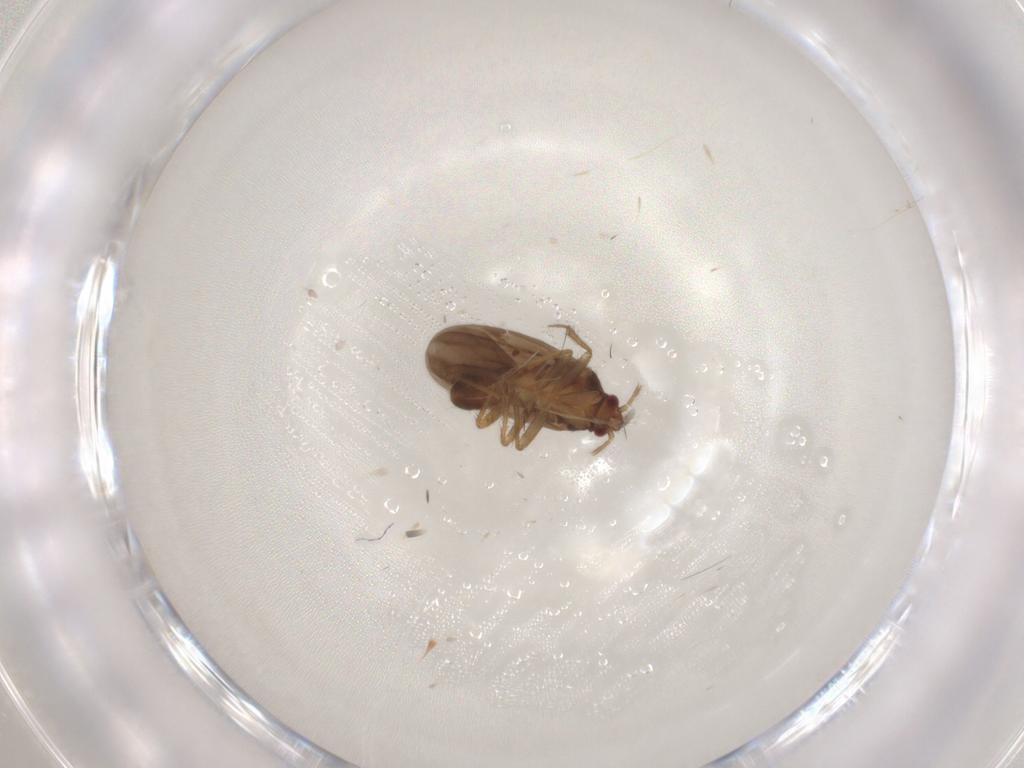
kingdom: Animalia
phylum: Arthropoda
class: Insecta
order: Hemiptera
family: Ceratocombidae
